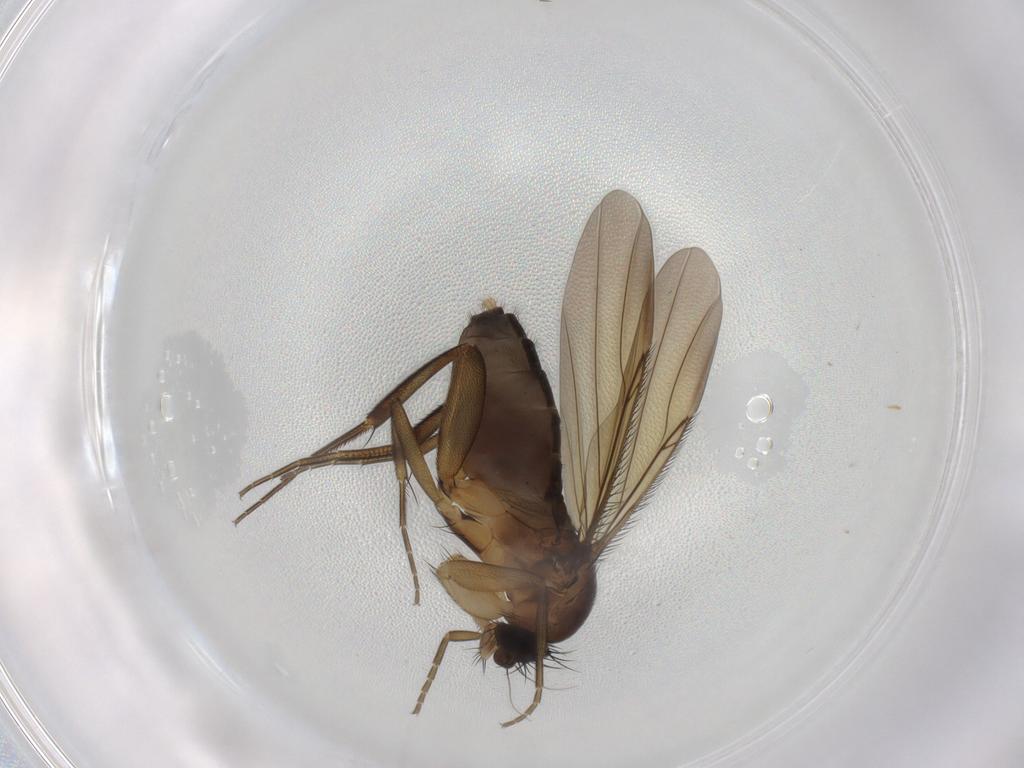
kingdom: Animalia
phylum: Arthropoda
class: Insecta
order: Diptera
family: Phoridae
